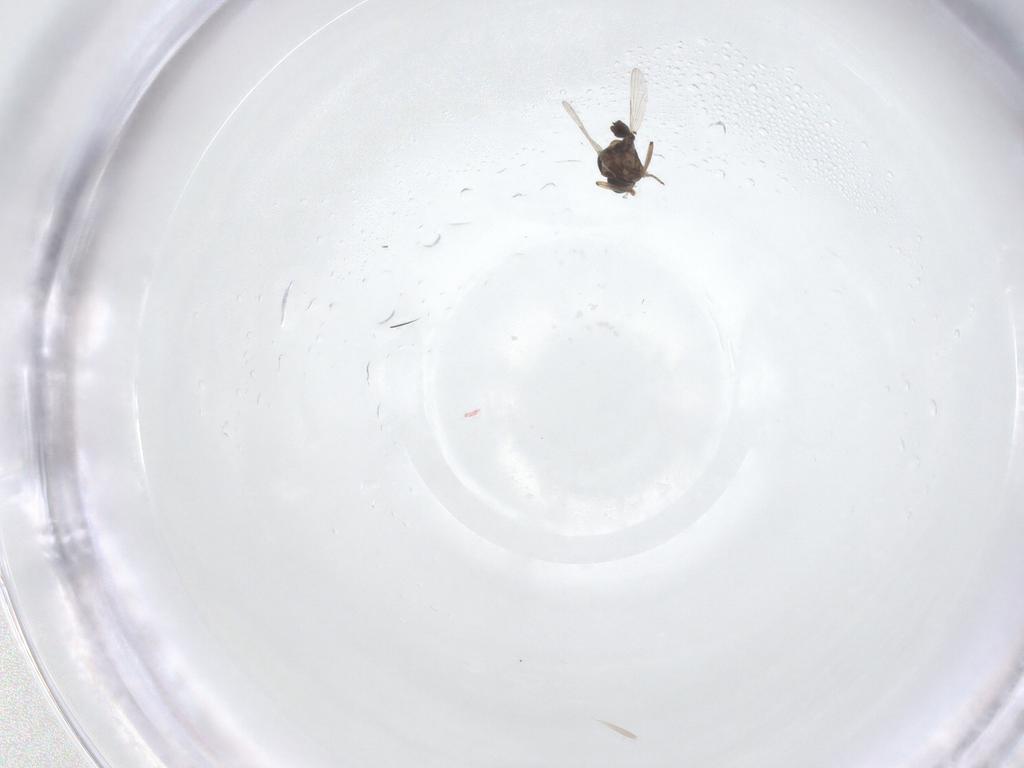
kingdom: Animalia
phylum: Arthropoda
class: Insecta
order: Diptera
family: Ceratopogonidae
